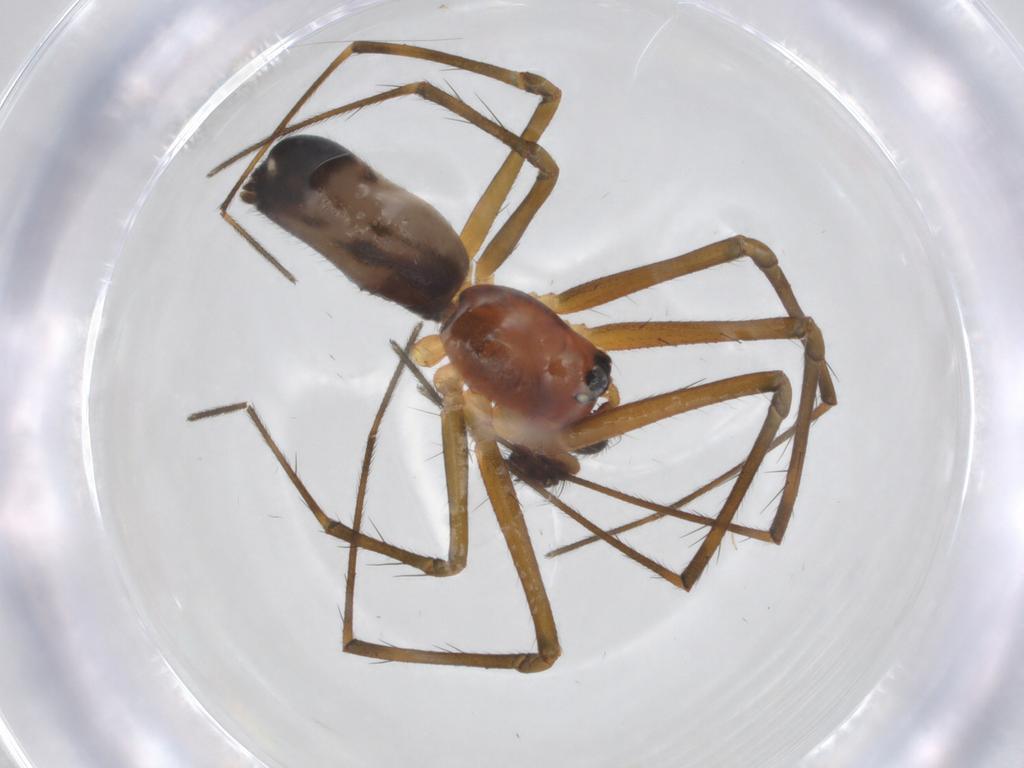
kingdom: Animalia
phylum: Arthropoda
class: Arachnida
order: Araneae
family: Linyphiidae
